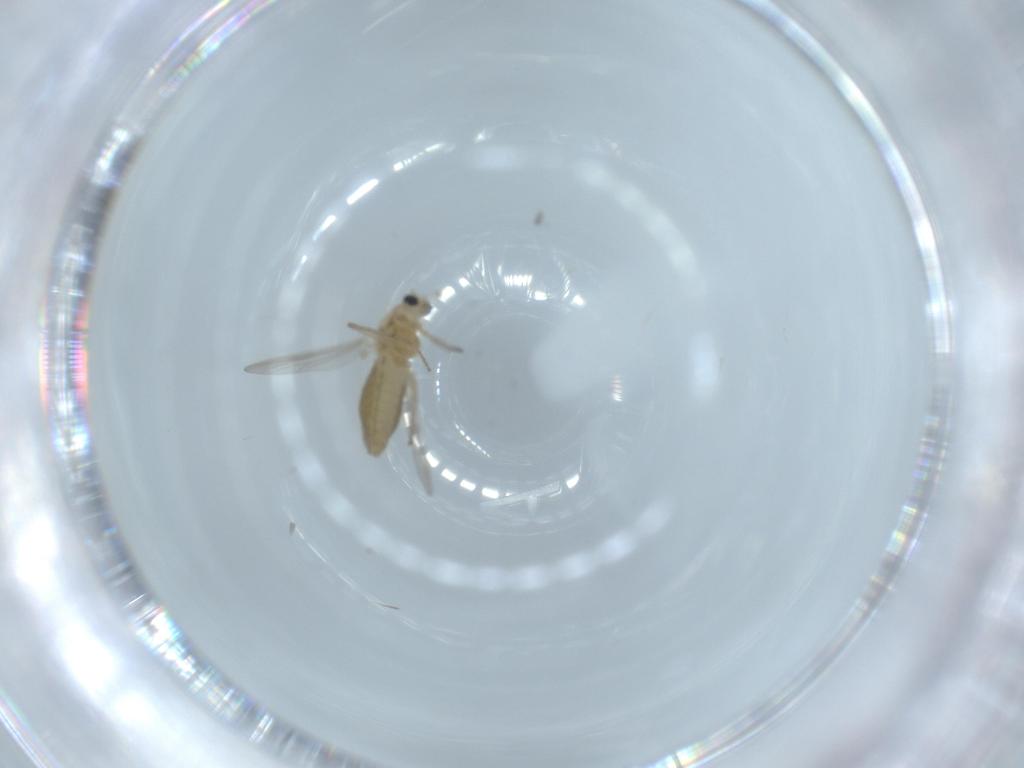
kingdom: Animalia
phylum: Arthropoda
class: Insecta
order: Diptera
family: Chironomidae
